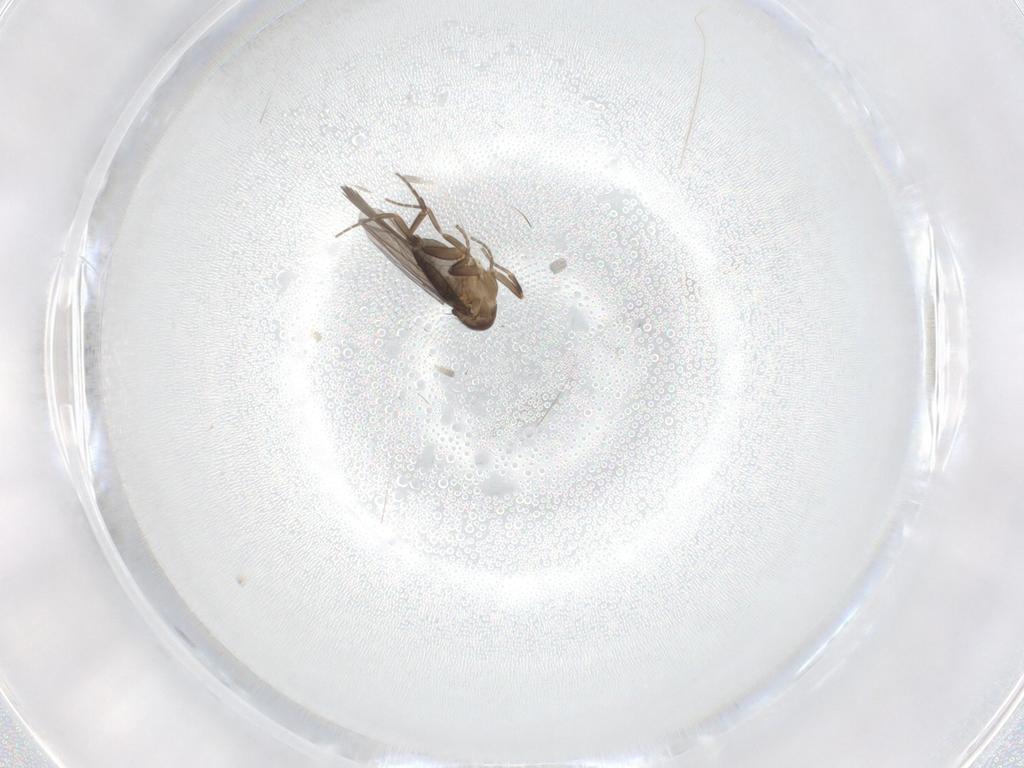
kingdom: Animalia
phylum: Arthropoda
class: Insecta
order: Diptera
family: Phoridae
